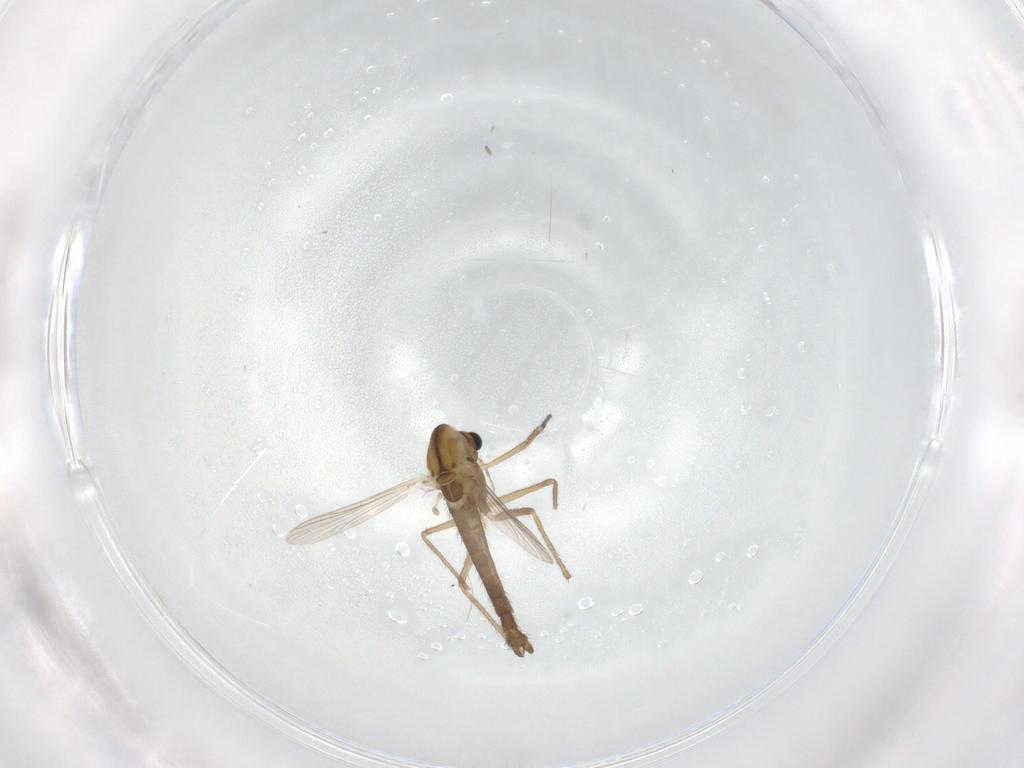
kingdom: Animalia
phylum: Arthropoda
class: Insecta
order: Diptera
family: Chironomidae
